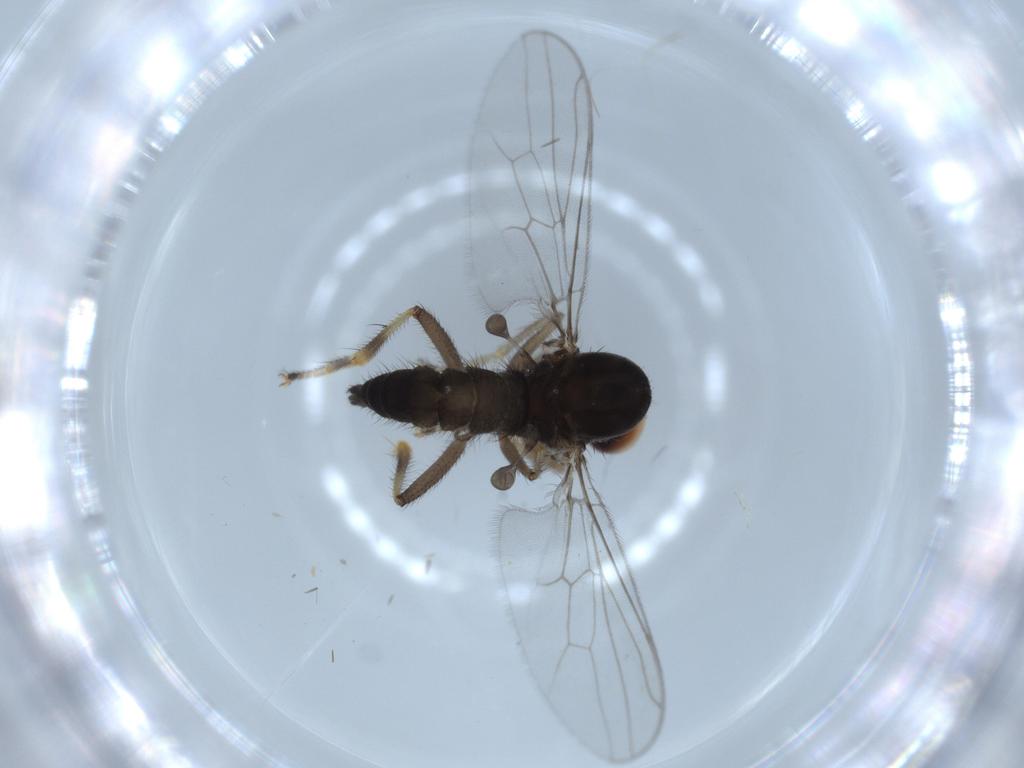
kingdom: Animalia
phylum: Arthropoda
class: Insecta
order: Diptera
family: Hybotidae
